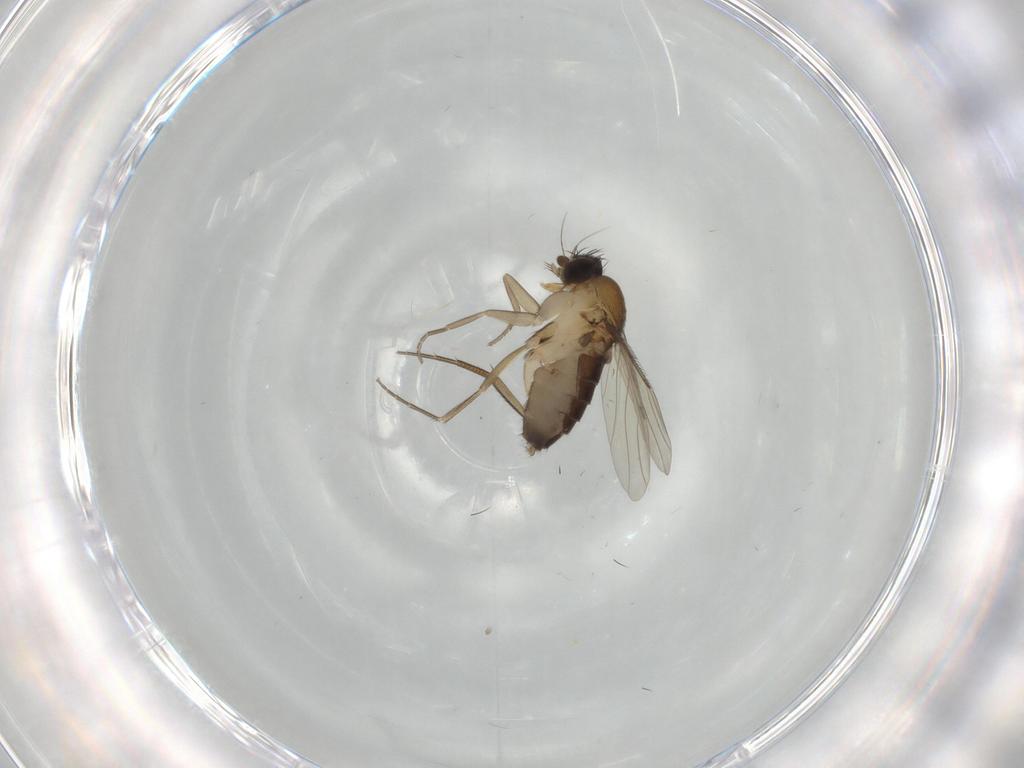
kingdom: Animalia
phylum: Arthropoda
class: Insecta
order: Diptera
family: Phoridae
